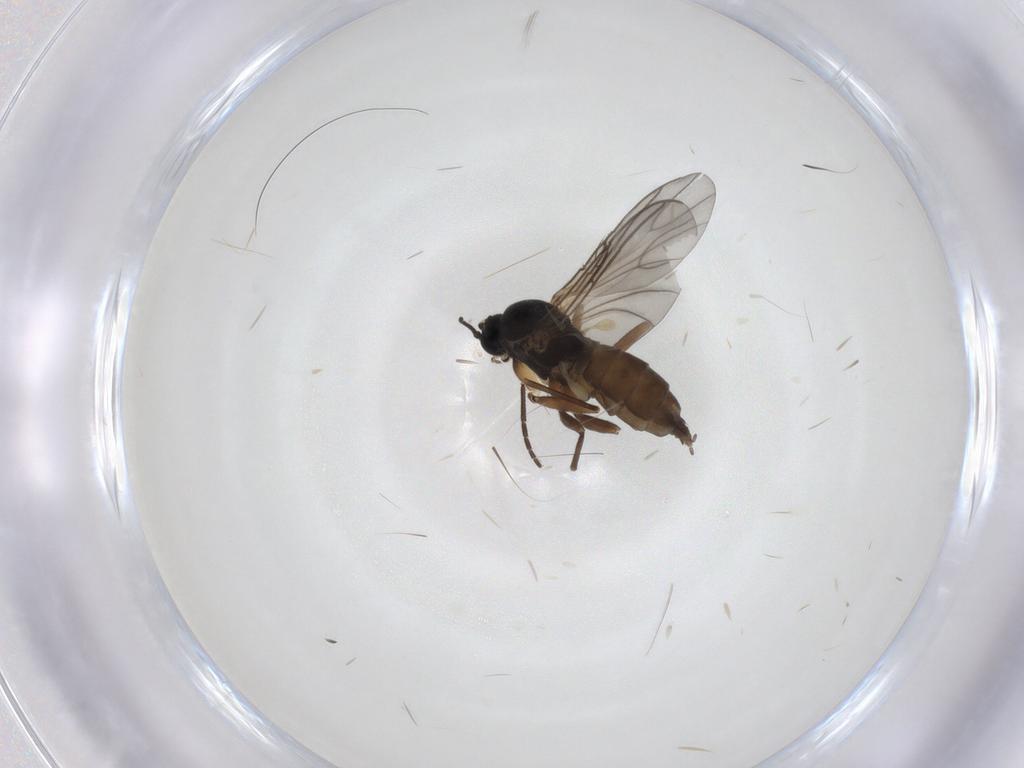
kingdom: Animalia
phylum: Arthropoda
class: Insecta
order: Diptera
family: Sciaridae
